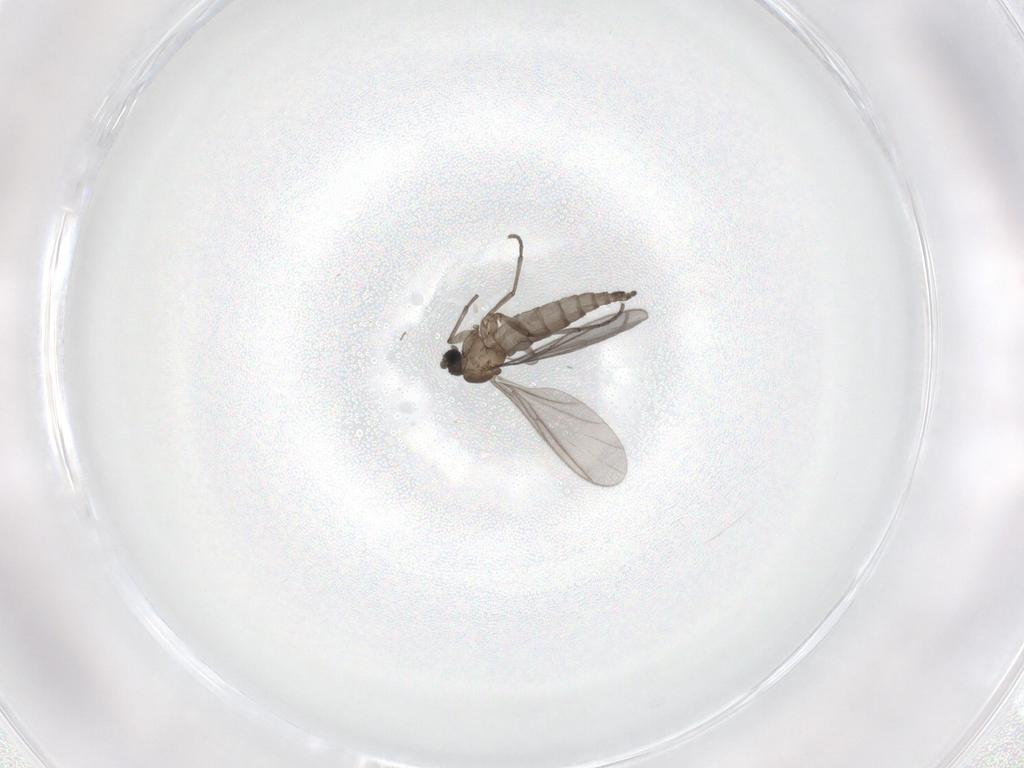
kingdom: Animalia
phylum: Arthropoda
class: Insecta
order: Diptera
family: Sciaridae
